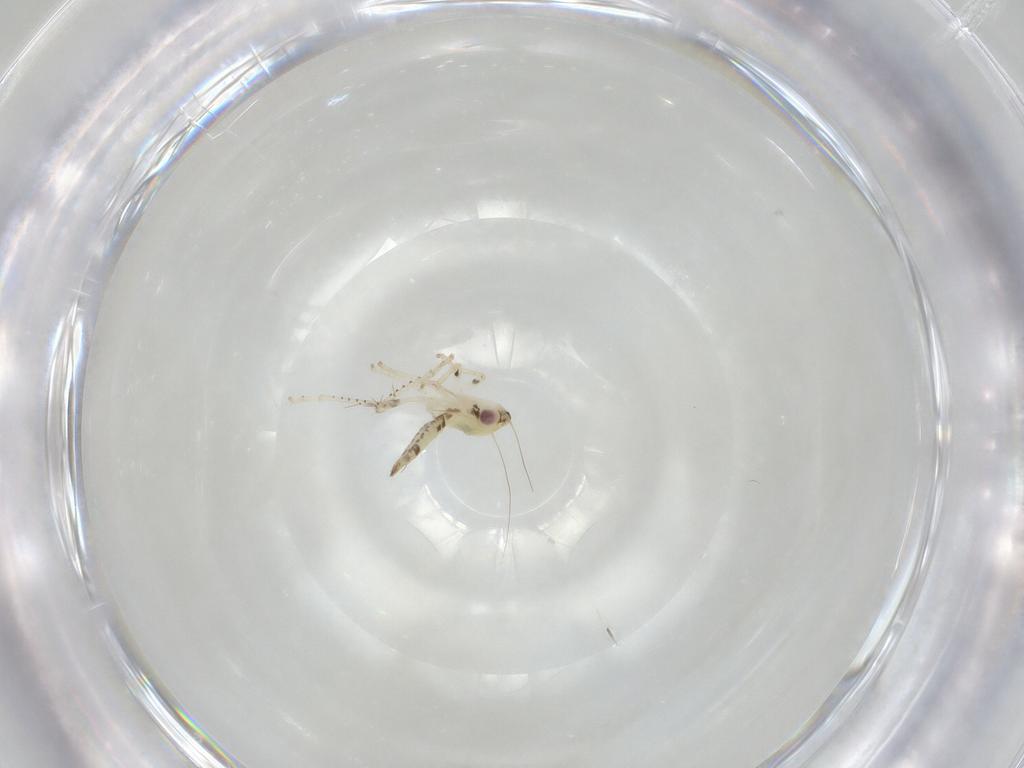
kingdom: Animalia
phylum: Arthropoda
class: Insecta
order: Hemiptera
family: Cicadellidae
